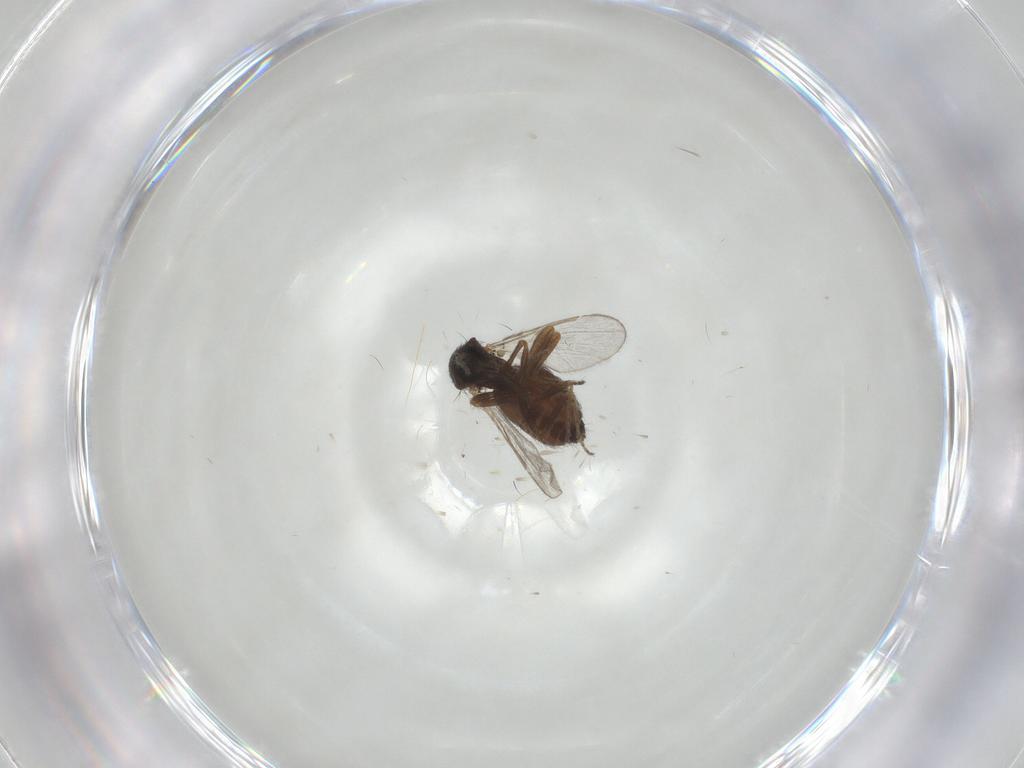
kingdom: Animalia
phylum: Arthropoda
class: Insecta
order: Diptera
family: Ceratopogonidae
